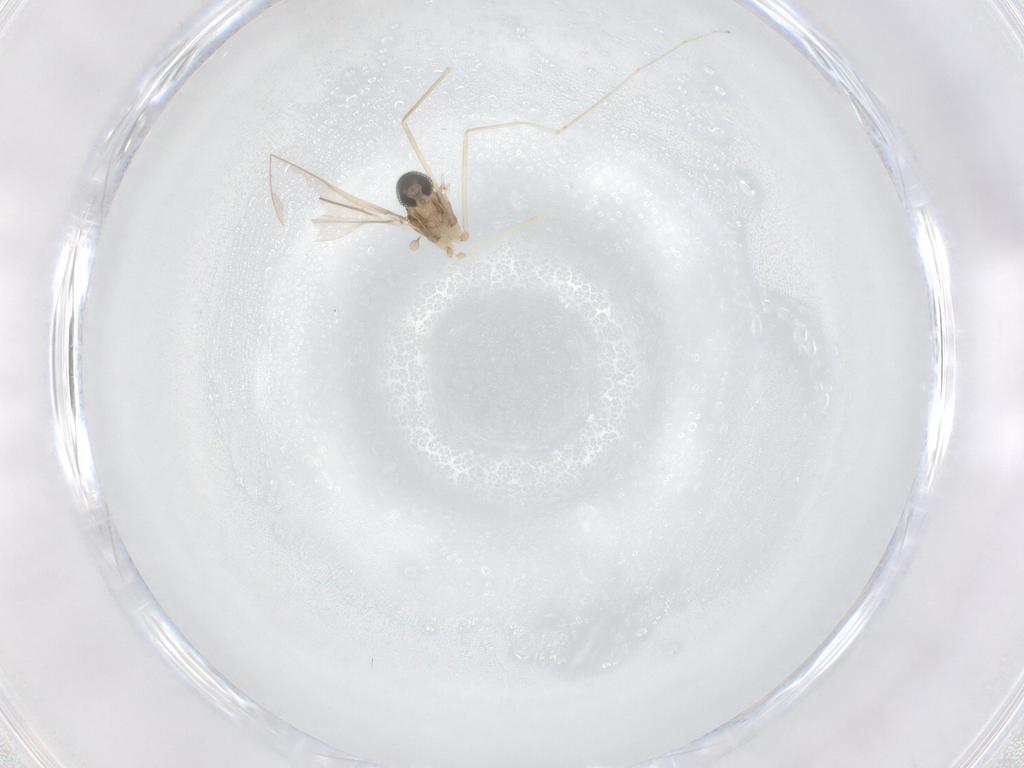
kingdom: Animalia
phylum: Arthropoda
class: Insecta
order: Diptera
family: Cecidomyiidae
